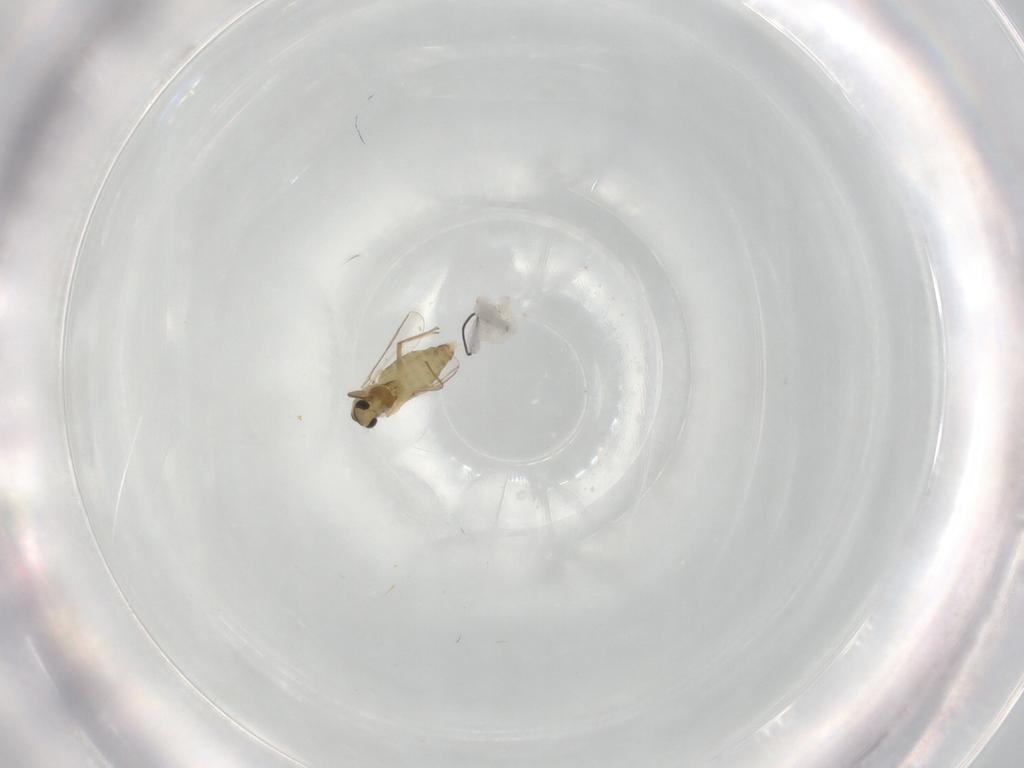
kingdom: Animalia
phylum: Arthropoda
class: Insecta
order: Diptera
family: Chironomidae
